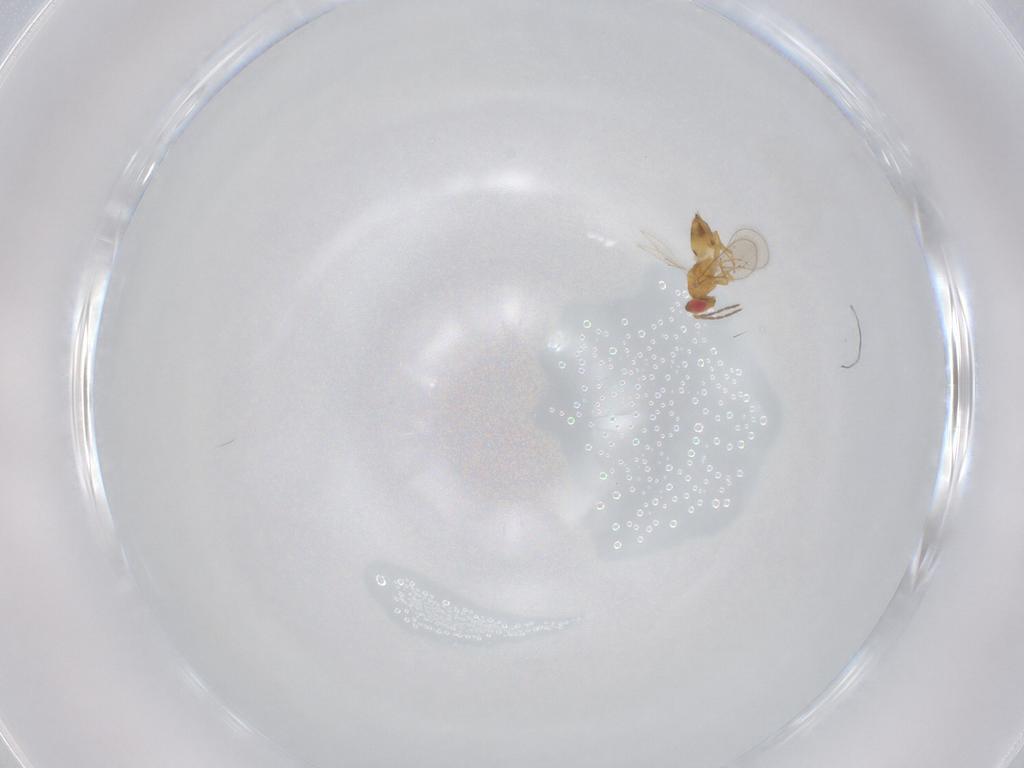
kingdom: Animalia
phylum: Arthropoda
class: Insecta
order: Hymenoptera
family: Eulophidae
